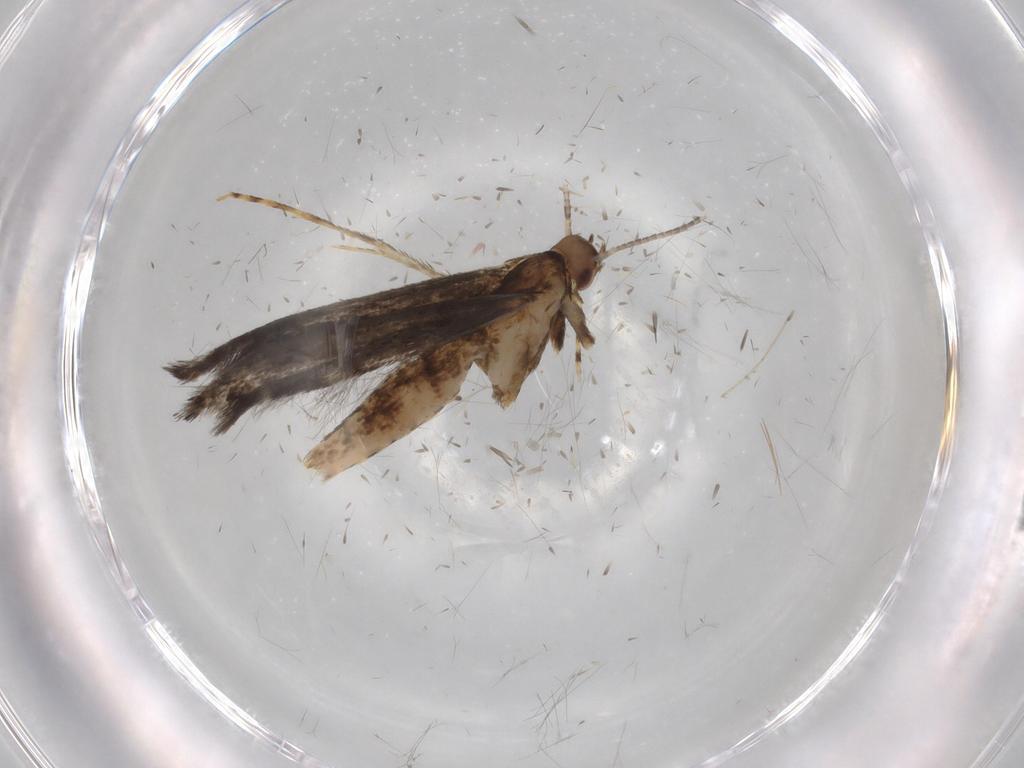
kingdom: Animalia
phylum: Arthropoda
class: Insecta
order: Lepidoptera
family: Gracillariidae
